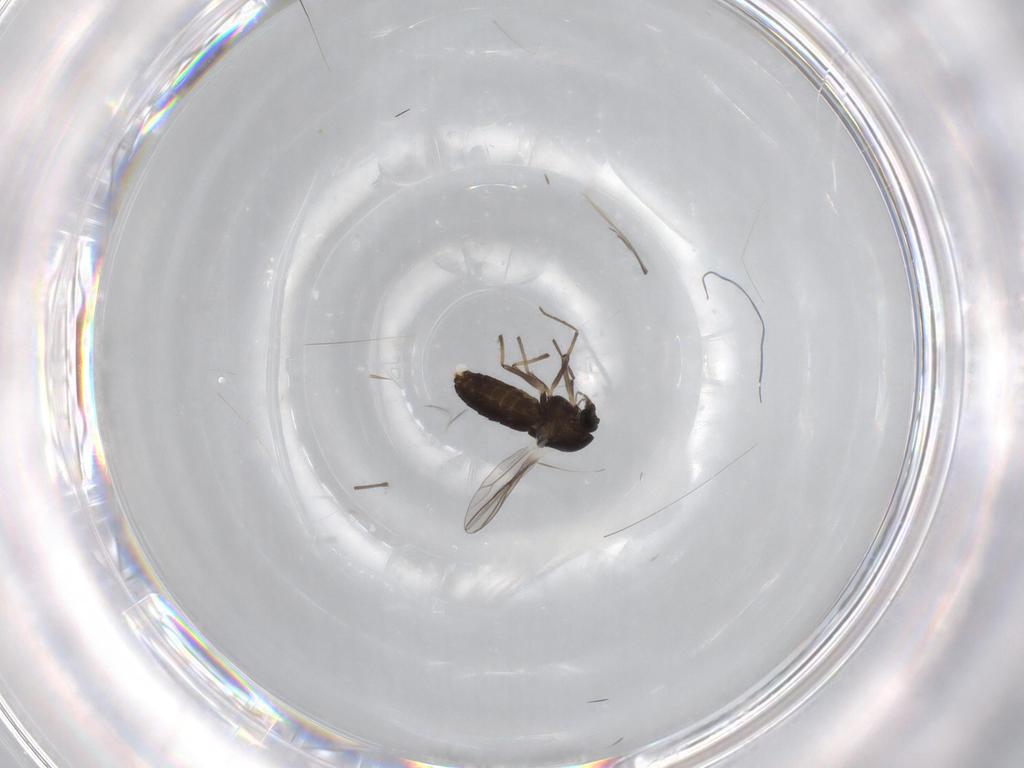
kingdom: Animalia
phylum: Arthropoda
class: Insecta
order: Diptera
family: Chironomidae
